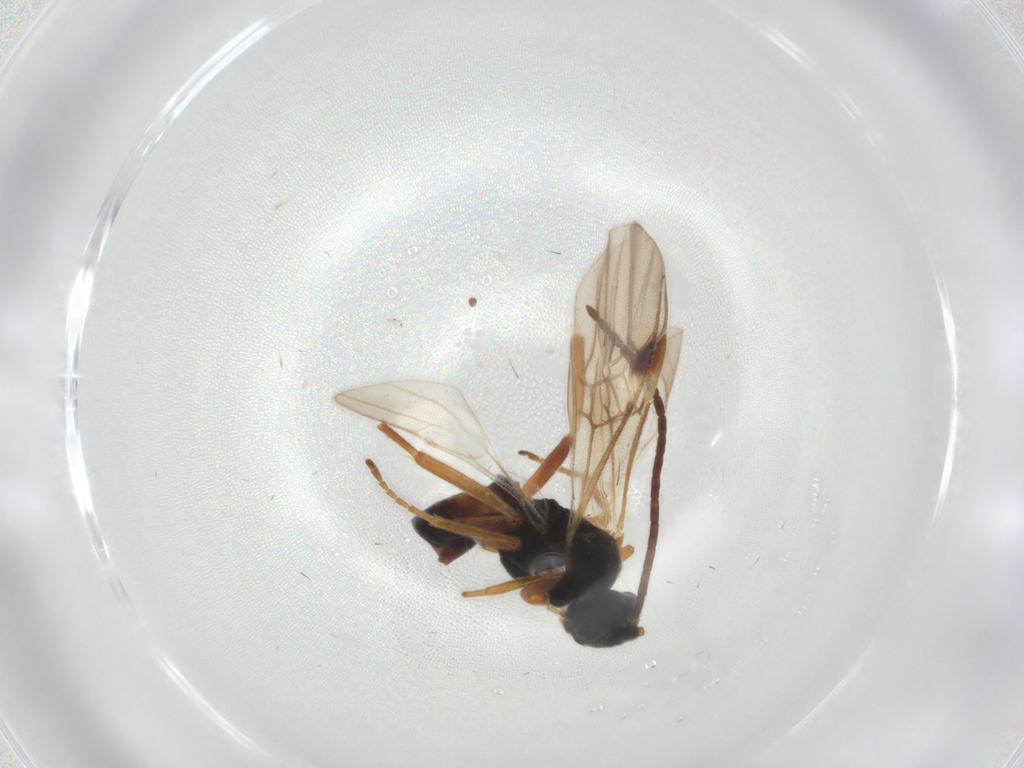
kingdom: Animalia
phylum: Arthropoda
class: Insecta
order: Hymenoptera
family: Braconidae
